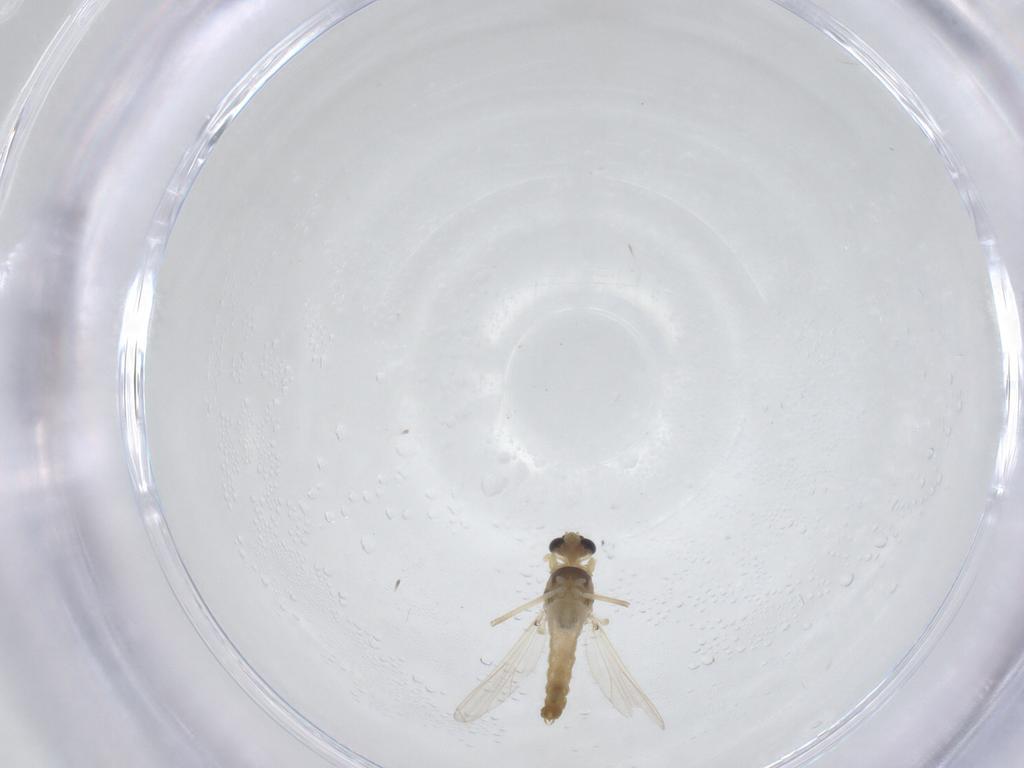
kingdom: Animalia
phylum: Arthropoda
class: Insecta
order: Diptera
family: Chironomidae
